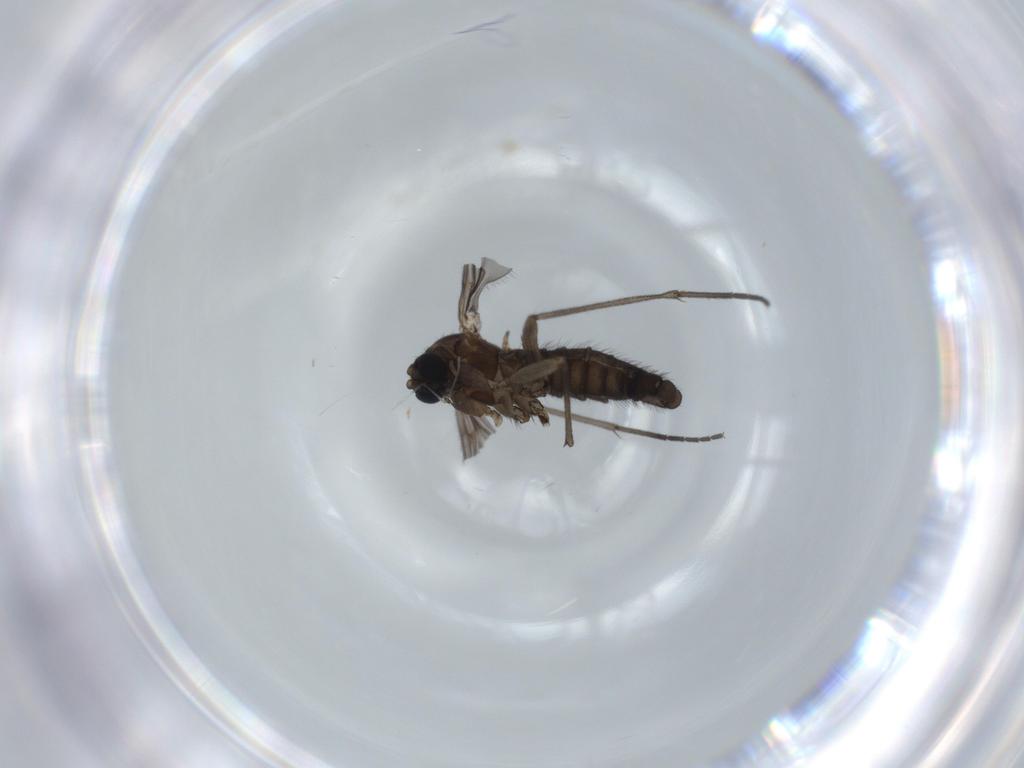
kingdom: Animalia
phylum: Arthropoda
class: Insecta
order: Diptera
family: Sciaridae
